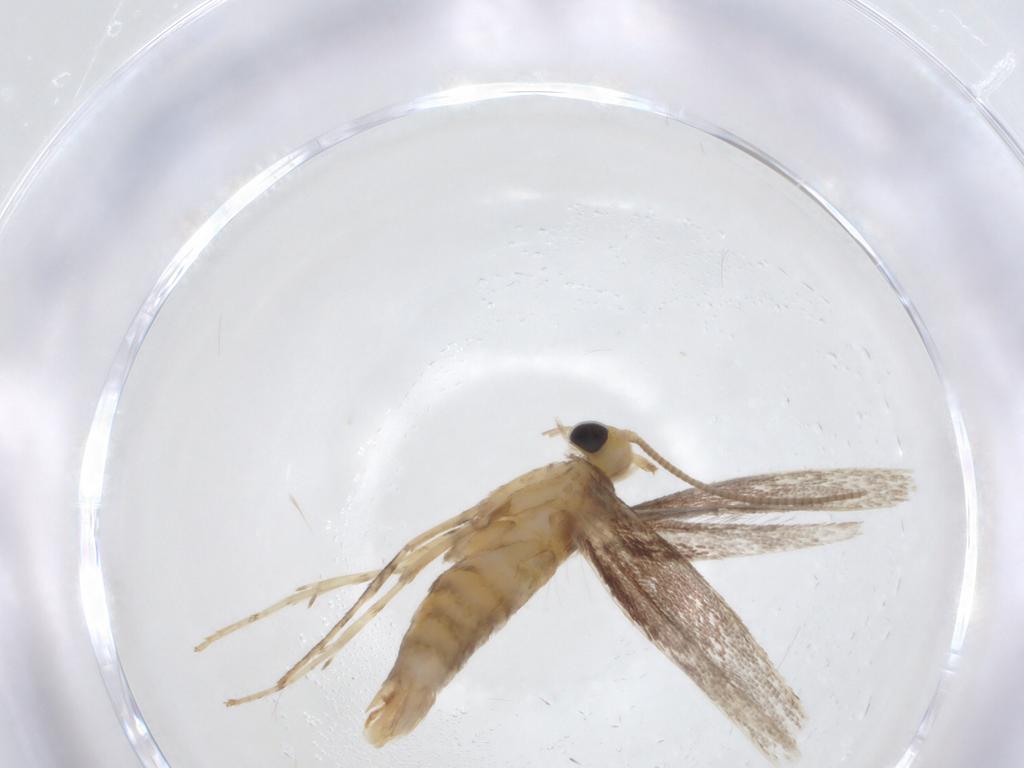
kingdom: Animalia
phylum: Arthropoda
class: Insecta
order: Lepidoptera
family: Gracillariidae
